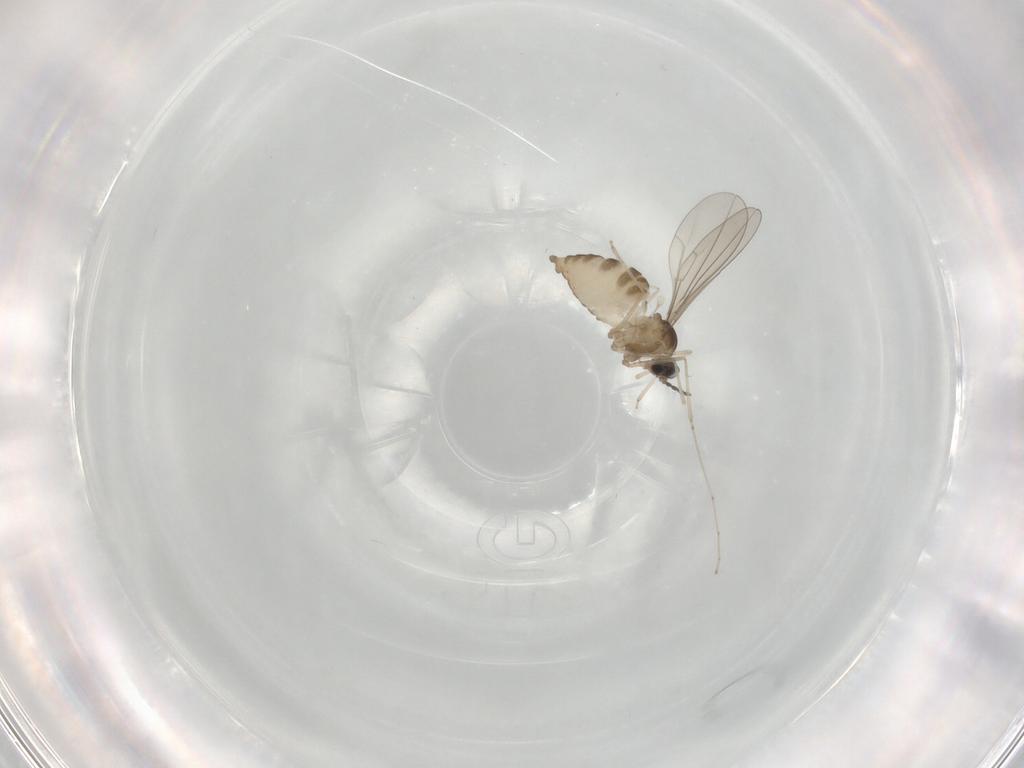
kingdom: Animalia
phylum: Arthropoda
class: Insecta
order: Diptera
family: Cecidomyiidae
